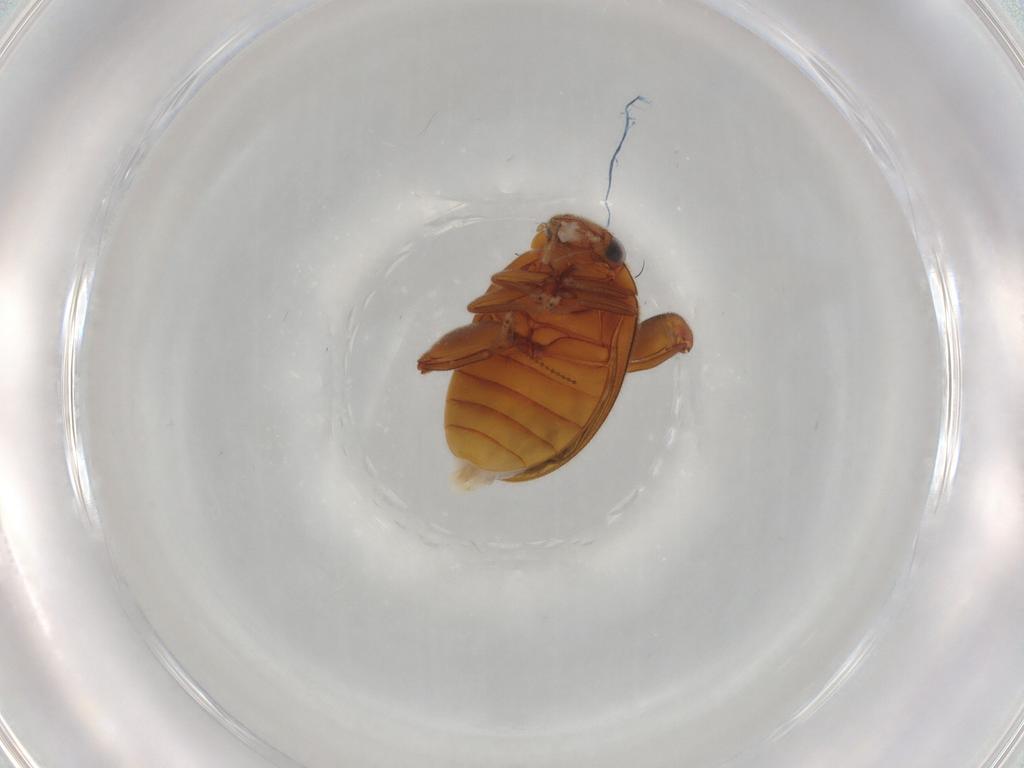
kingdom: Animalia
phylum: Arthropoda
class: Insecta
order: Coleoptera
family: Scirtidae
